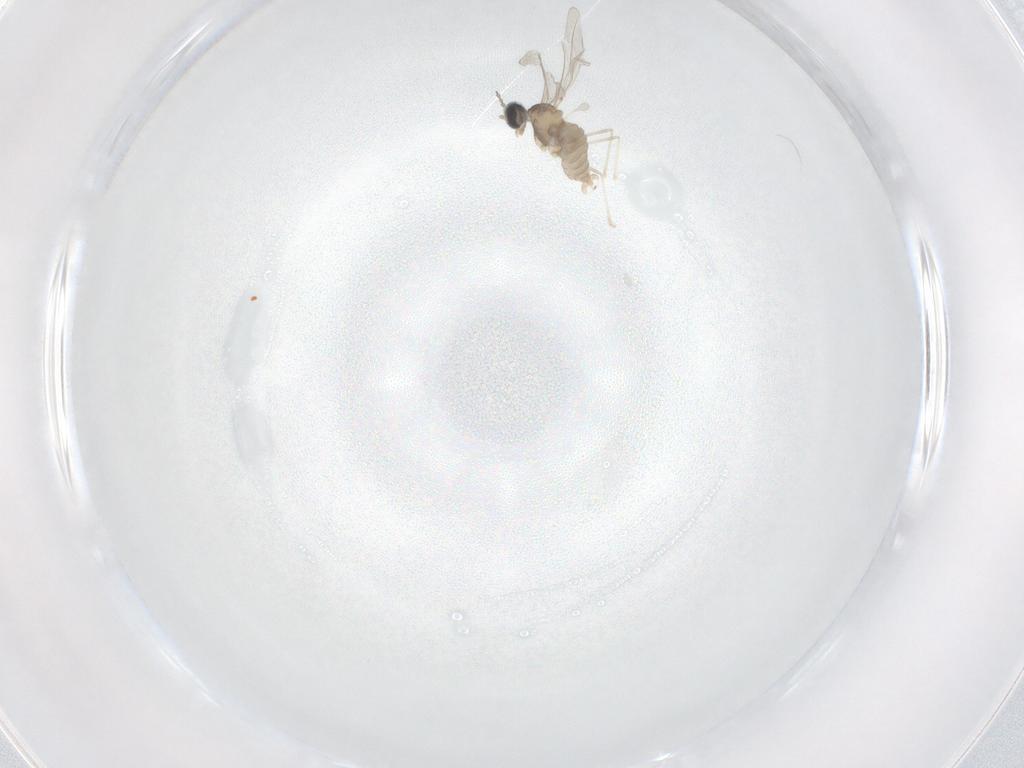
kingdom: Animalia
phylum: Arthropoda
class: Insecta
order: Diptera
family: Cecidomyiidae
